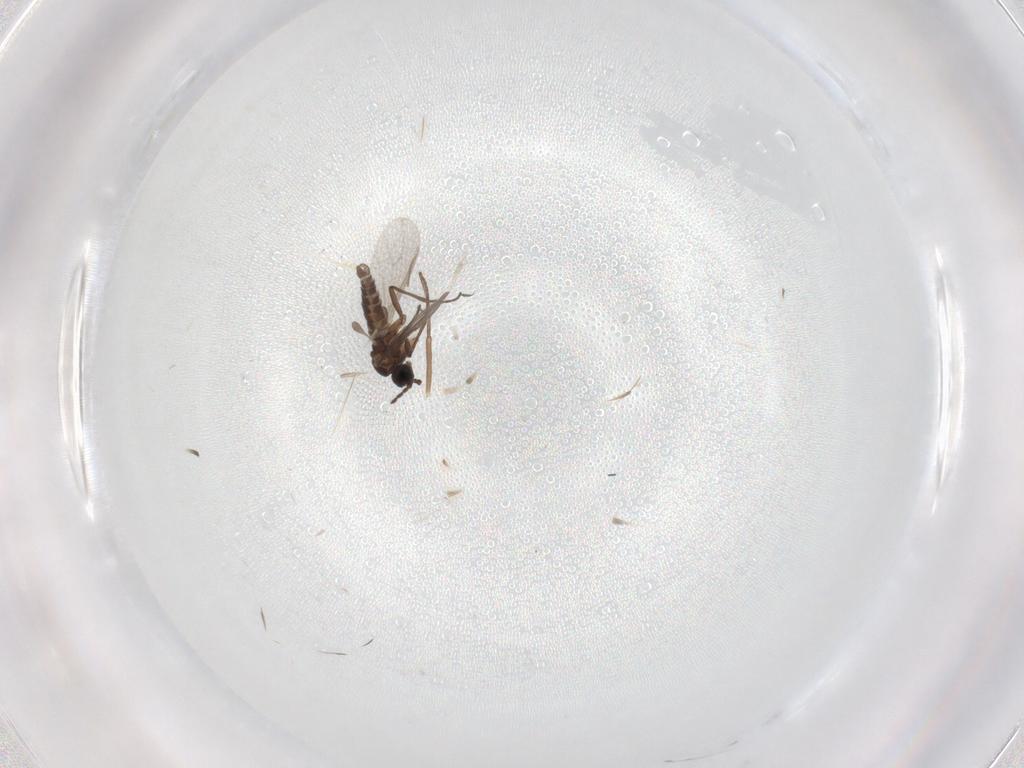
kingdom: Animalia
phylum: Arthropoda
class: Insecta
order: Diptera
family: Sciaridae
